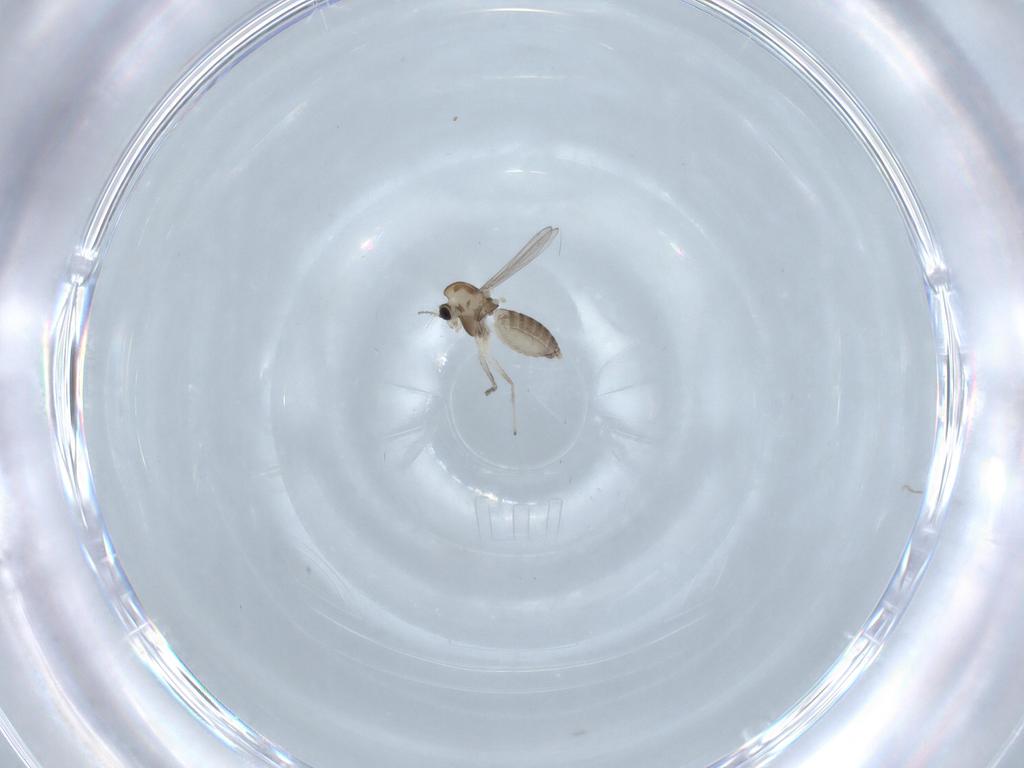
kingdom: Animalia
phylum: Arthropoda
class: Insecta
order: Diptera
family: Chironomidae
